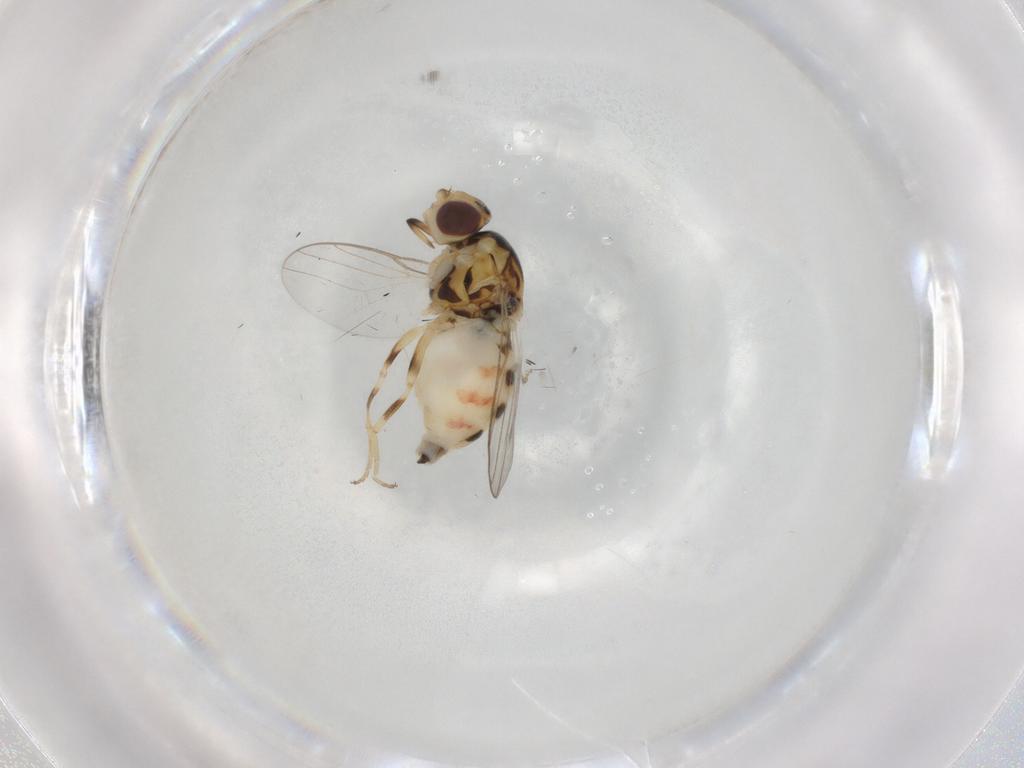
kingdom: Animalia
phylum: Arthropoda
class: Insecta
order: Diptera
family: Chloropidae
